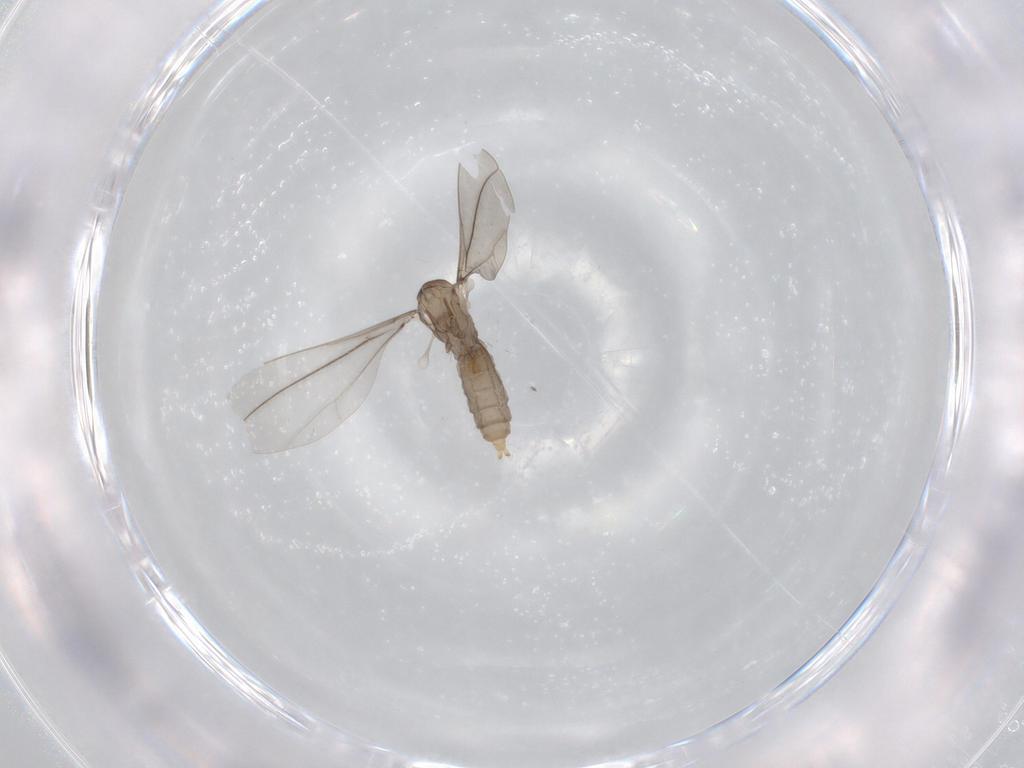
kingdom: Animalia
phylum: Arthropoda
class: Insecta
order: Diptera
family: Cecidomyiidae
